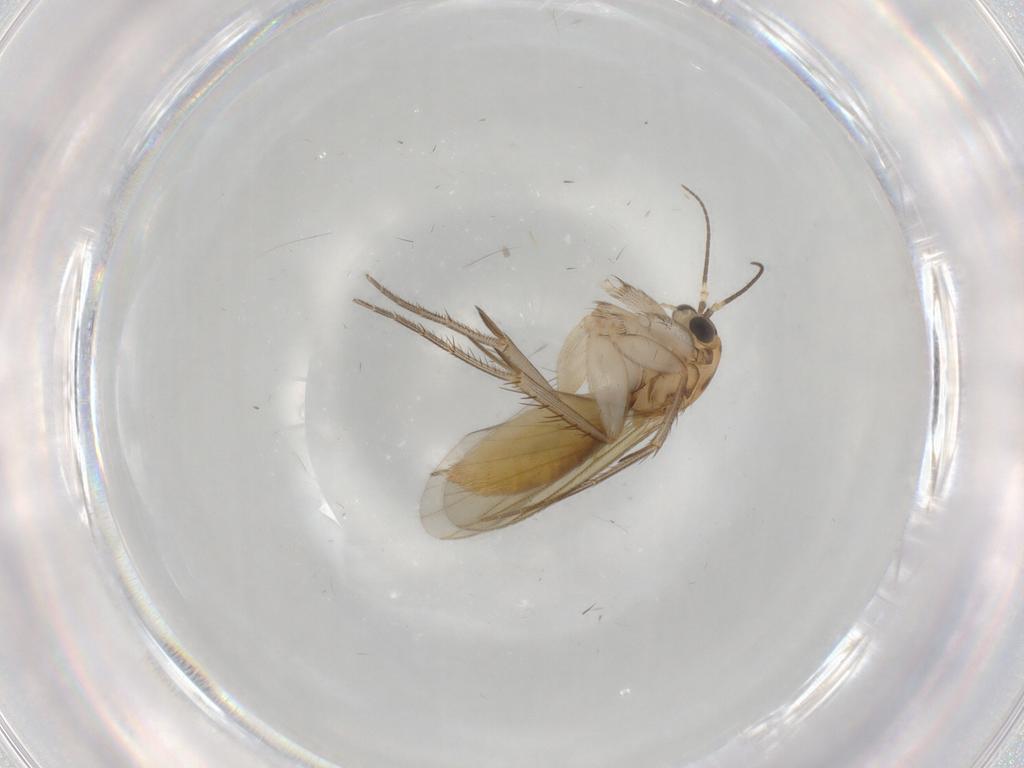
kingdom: Animalia
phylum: Arthropoda
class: Insecta
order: Diptera
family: Mycetophilidae
